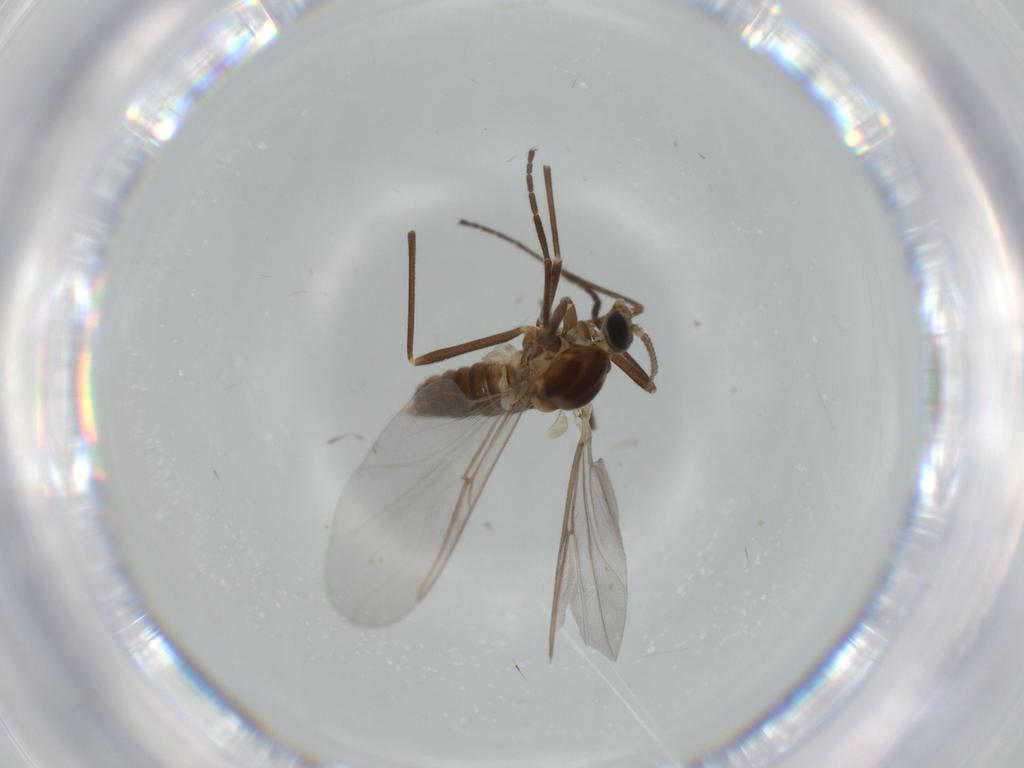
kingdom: Animalia
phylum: Arthropoda
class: Insecta
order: Diptera
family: Cecidomyiidae
